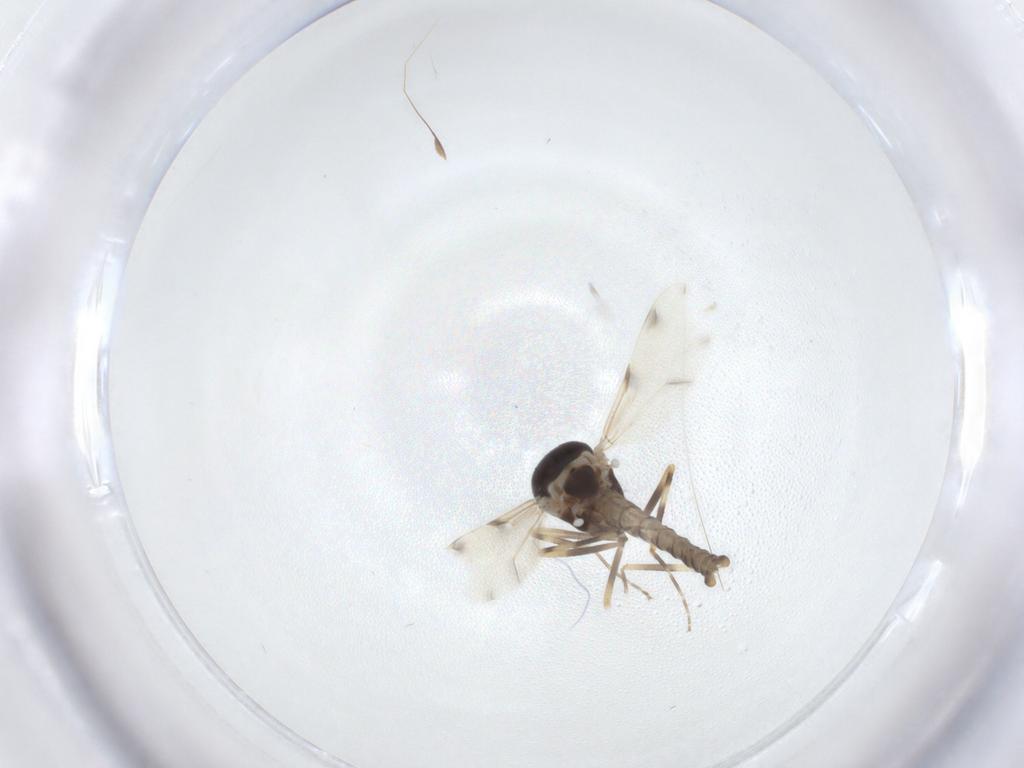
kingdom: Animalia
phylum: Arthropoda
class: Insecta
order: Diptera
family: Ceratopogonidae
